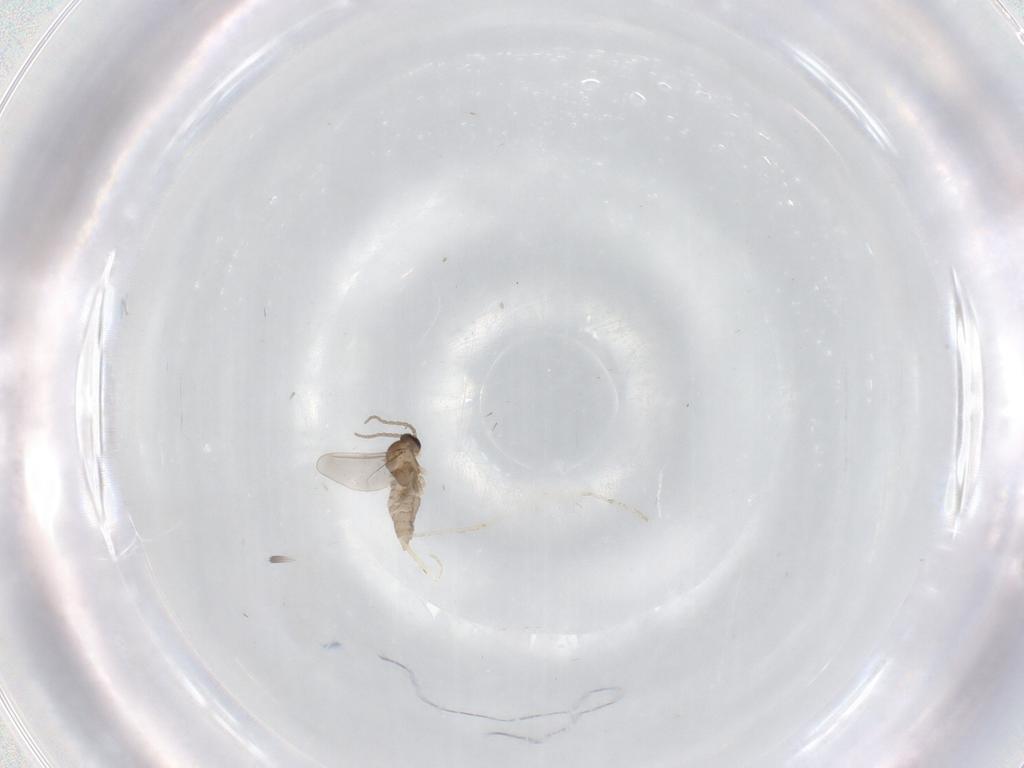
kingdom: Animalia
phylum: Arthropoda
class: Insecta
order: Diptera
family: Cecidomyiidae
